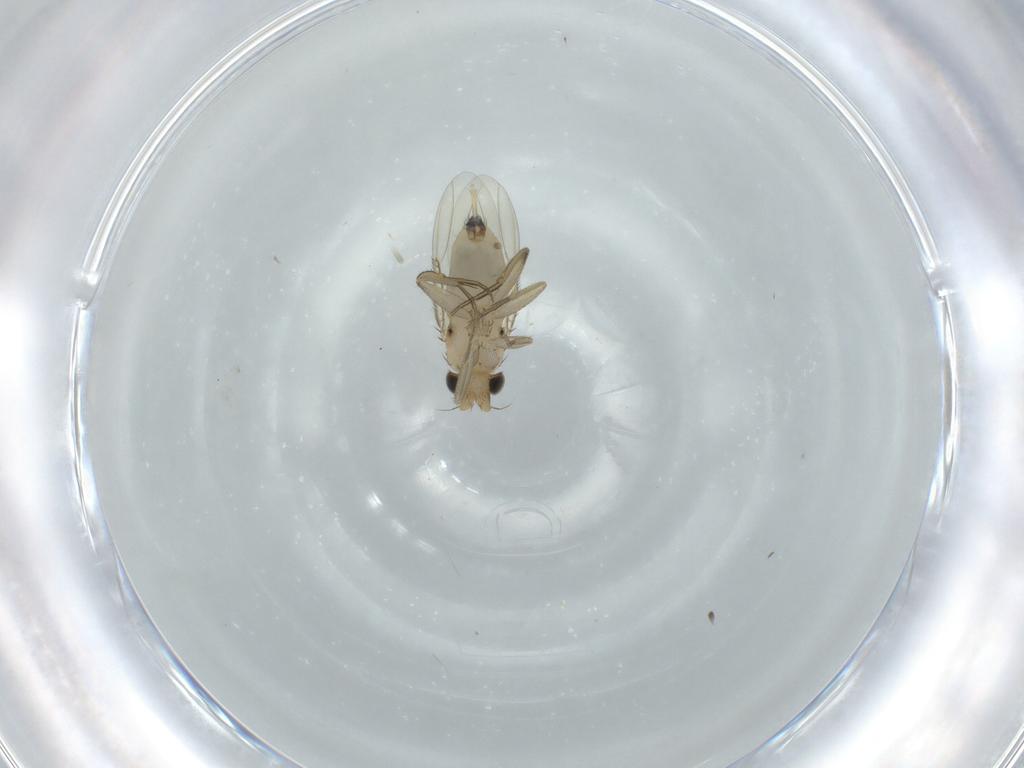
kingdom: Animalia
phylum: Arthropoda
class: Insecta
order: Diptera
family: Phoridae
